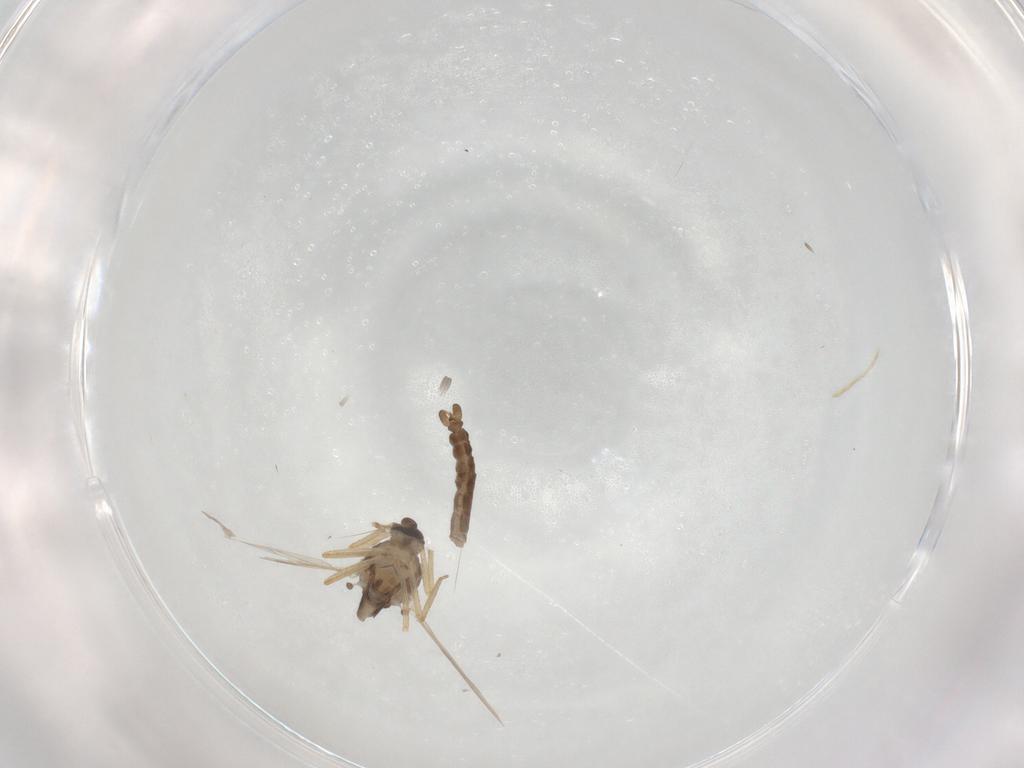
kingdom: Animalia
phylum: Arthropoda
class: Insecta
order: Diptera
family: Ceratopogonidae
